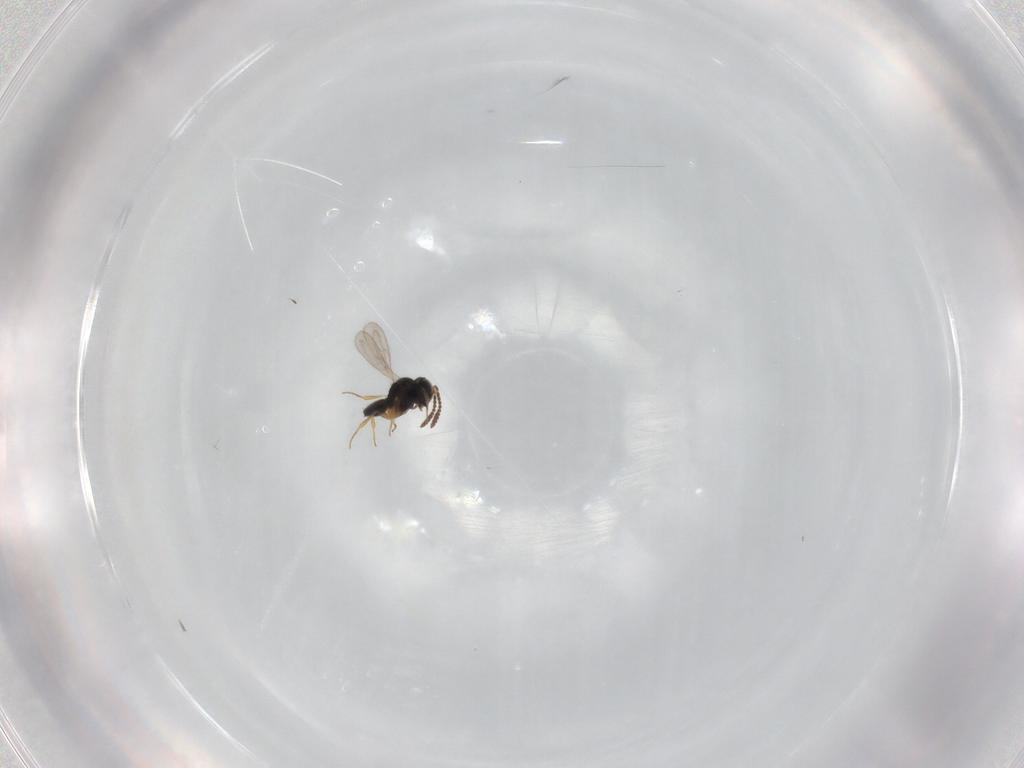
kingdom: Animalia
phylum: Arthropoda
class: Insecta
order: Hymenoptera
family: Scelionidae
